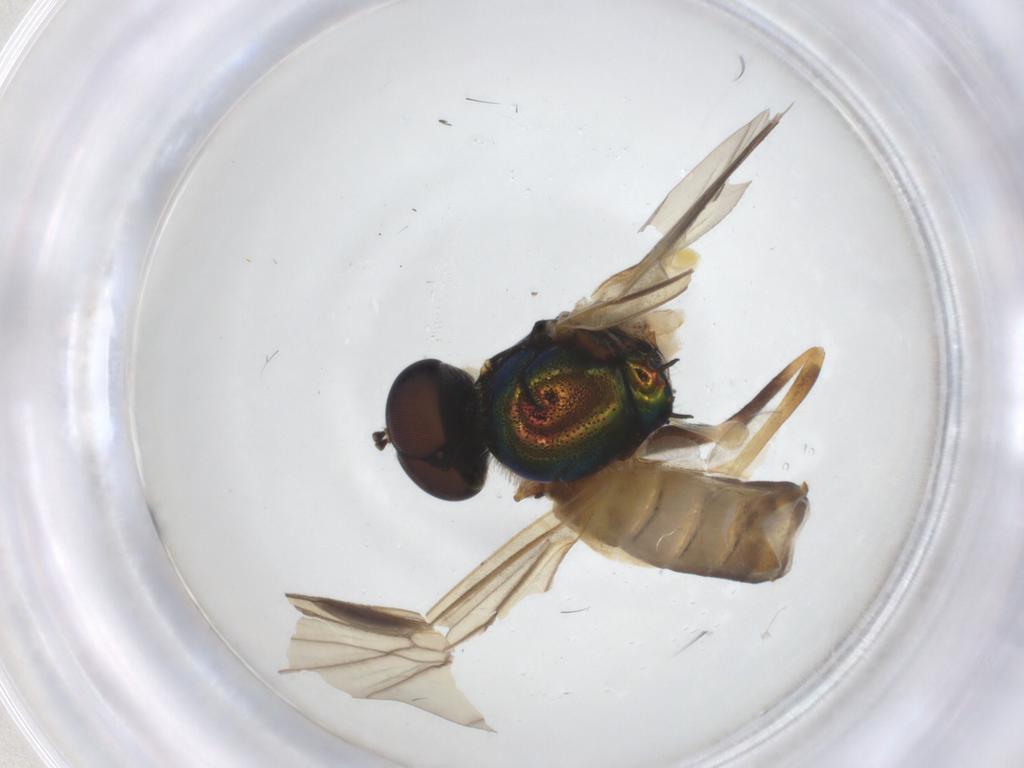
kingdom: Animalia
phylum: Arthropoda
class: Insecta
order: Diptera
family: Stratiomyidae
